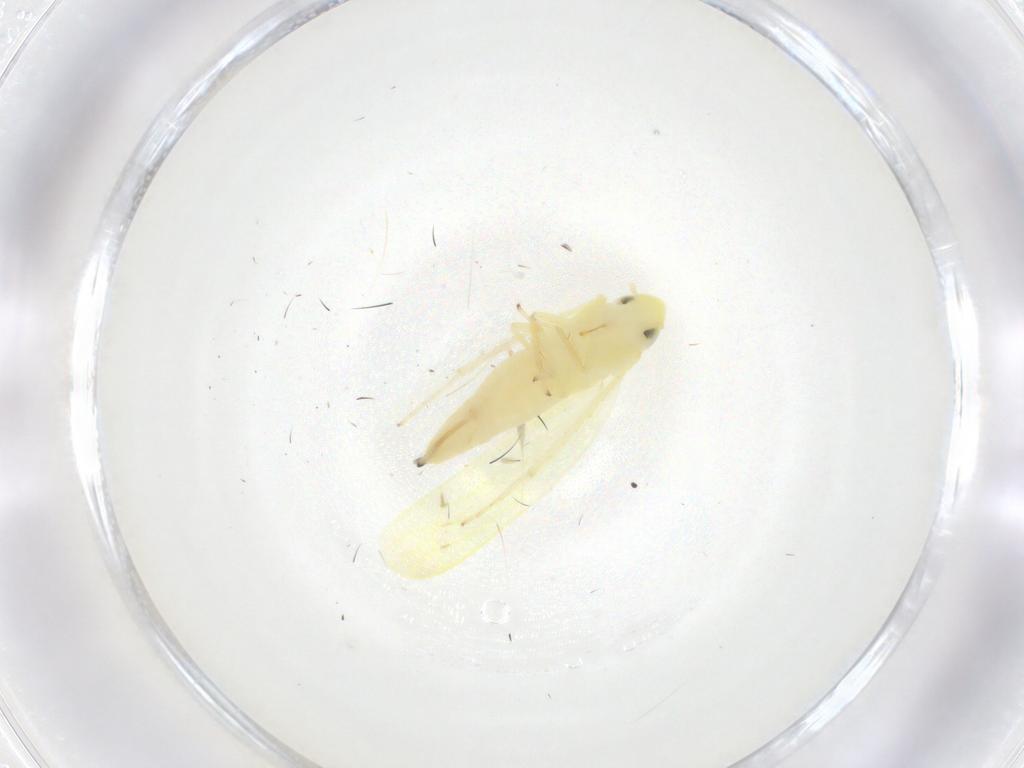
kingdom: Animalia
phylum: Arthropoda
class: Insecta
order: Hemiptera
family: Cicadellidae
